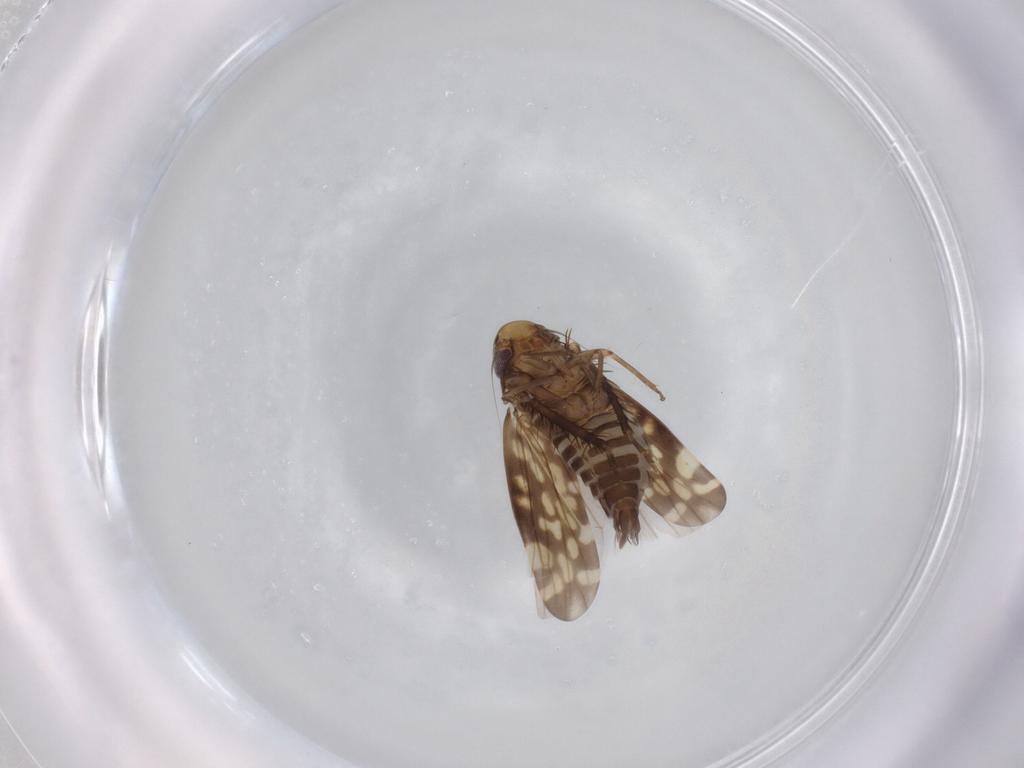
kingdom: Animalia
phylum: Arthropoda
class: Insecta
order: Hemiptera
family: Cicadellidae
